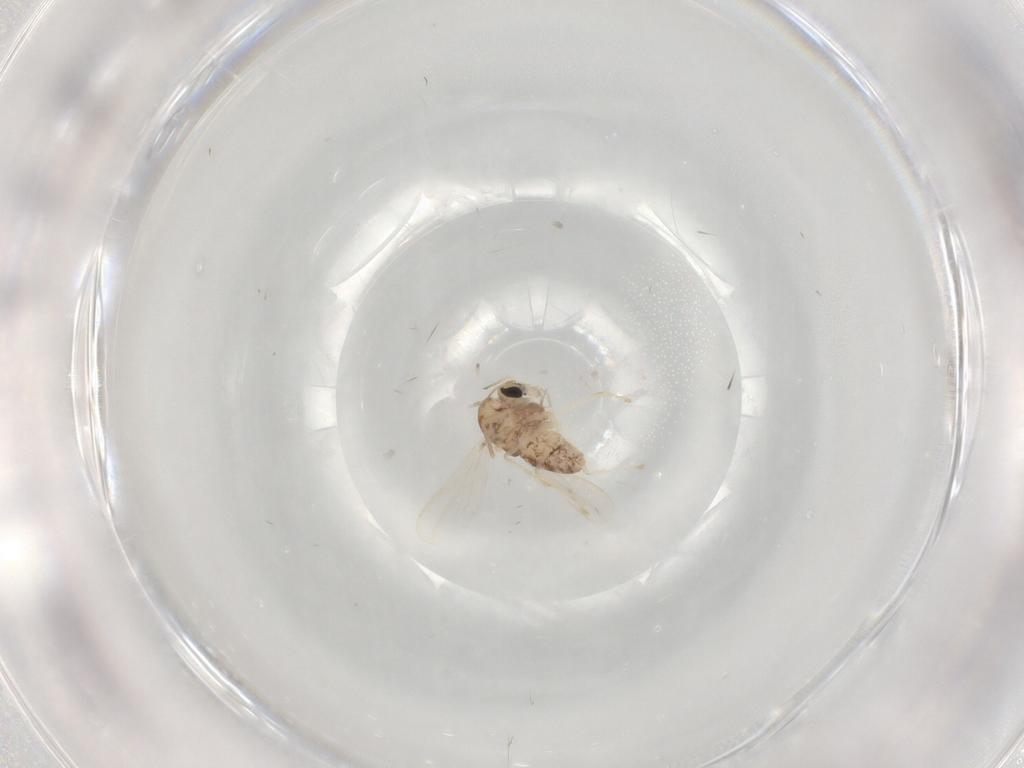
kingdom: Animalia
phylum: Arthropoda
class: Insecta
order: Diptera
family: Chironomidae
